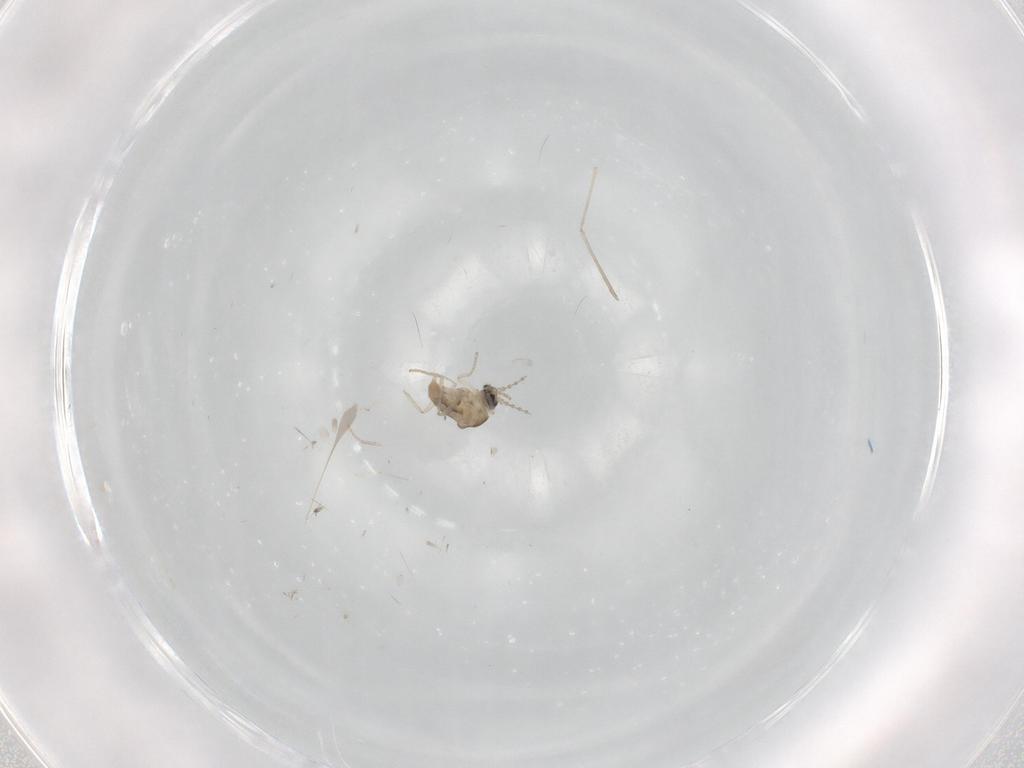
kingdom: Animalia
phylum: Arthropoda
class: Insecta
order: Diptera
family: Cecidomyiidae
